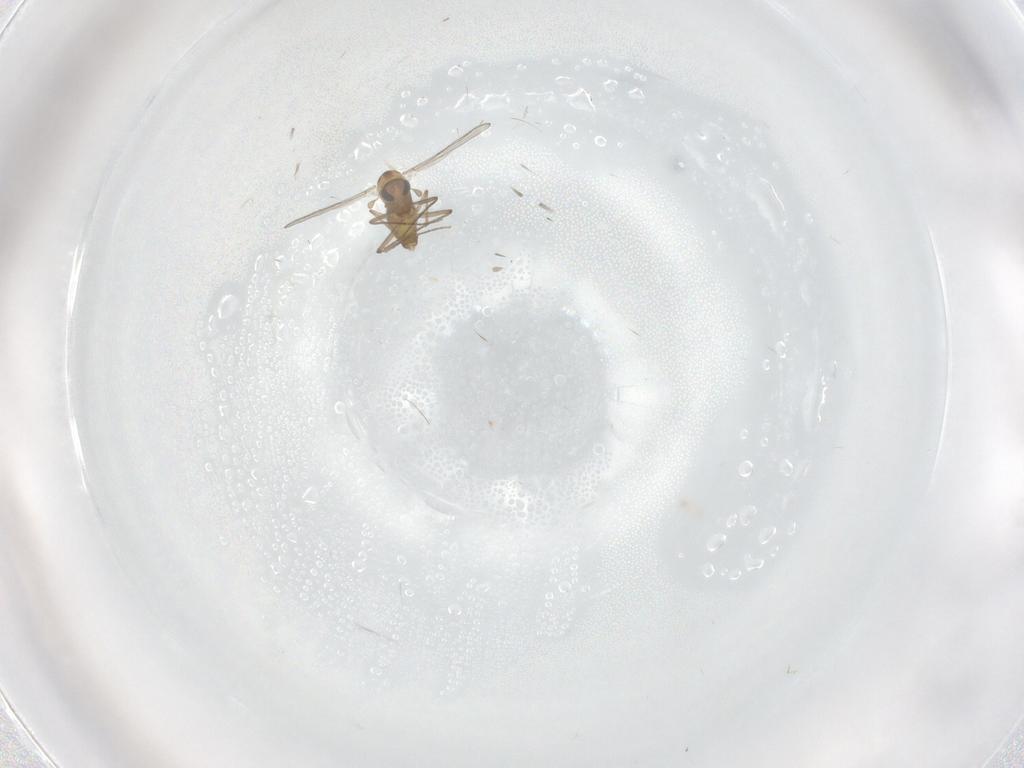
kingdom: Animalia
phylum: Arthropoda
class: Insecta
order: Diptera
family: Chironomidae
